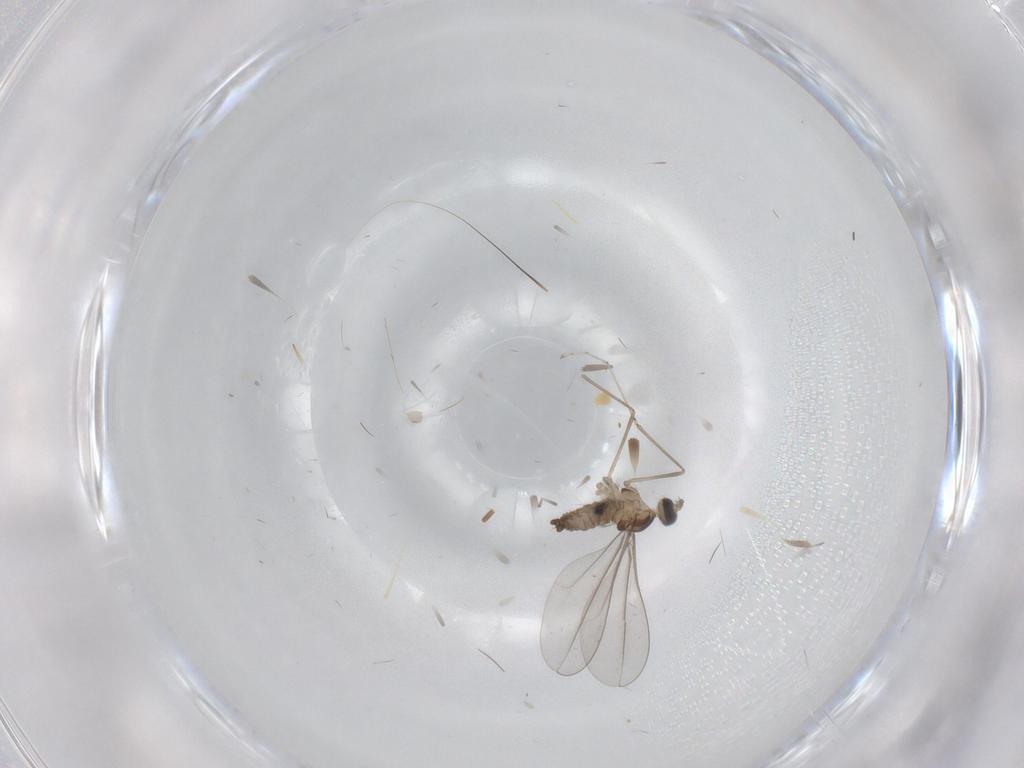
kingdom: Animalia
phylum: Arthropoda
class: Insecta
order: Diptera
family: Cecidomyiidae
